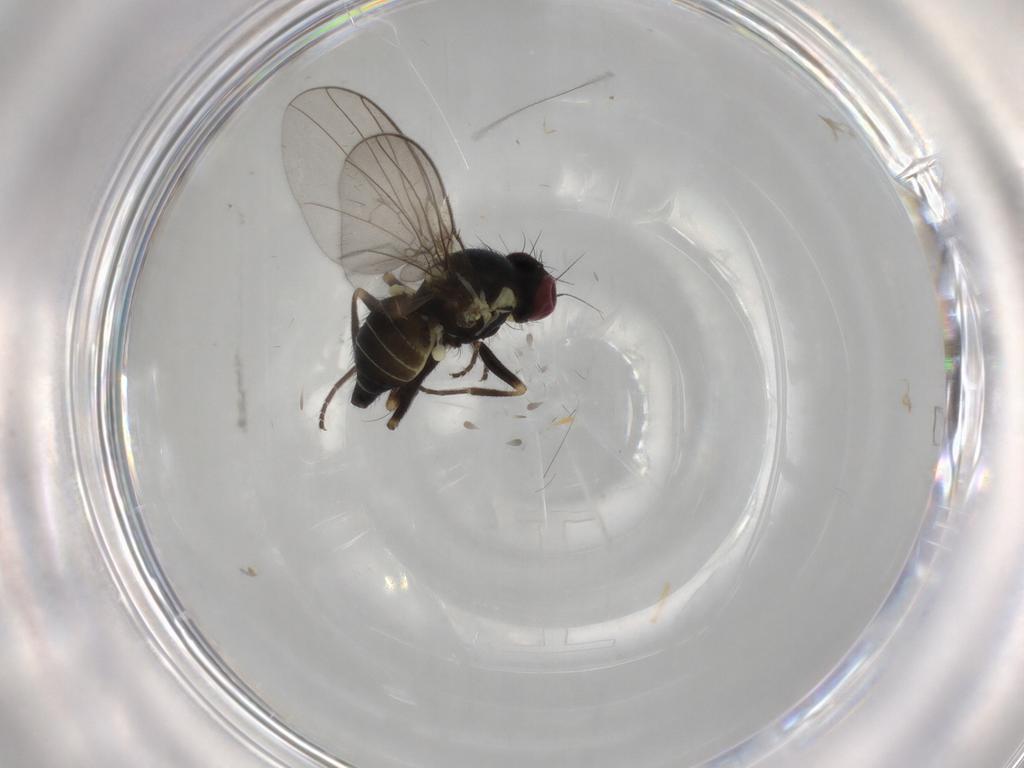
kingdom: Animalia
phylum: Arthropoda
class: Insecta
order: Diptera
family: Agromyzidae
